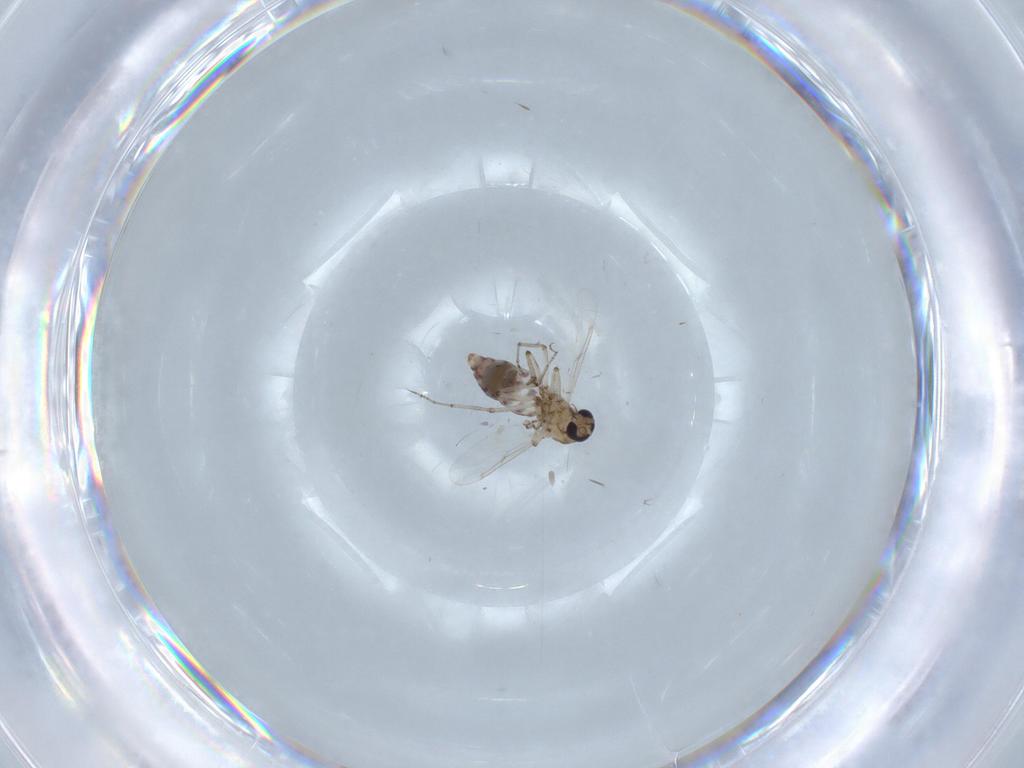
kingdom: Animalia
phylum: Arthropoda
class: Insecta
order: Diptera
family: Ceratopogonidae
